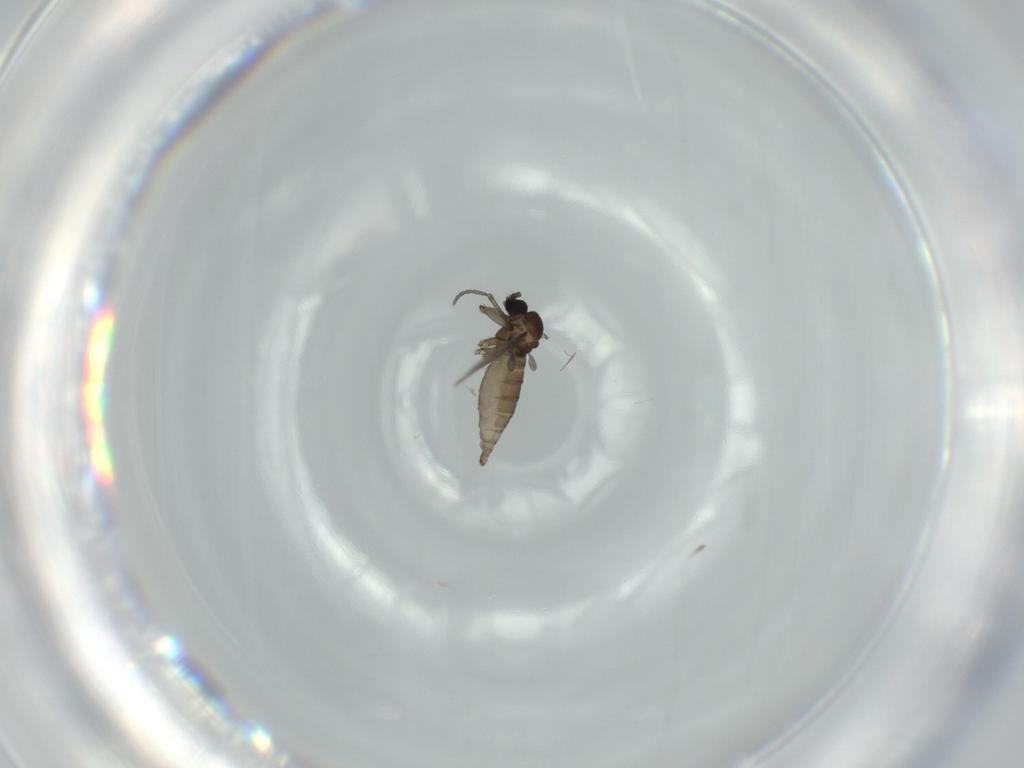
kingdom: Animalia
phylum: Arthropoda
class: Insecta
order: Diptera
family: Sciaridae
